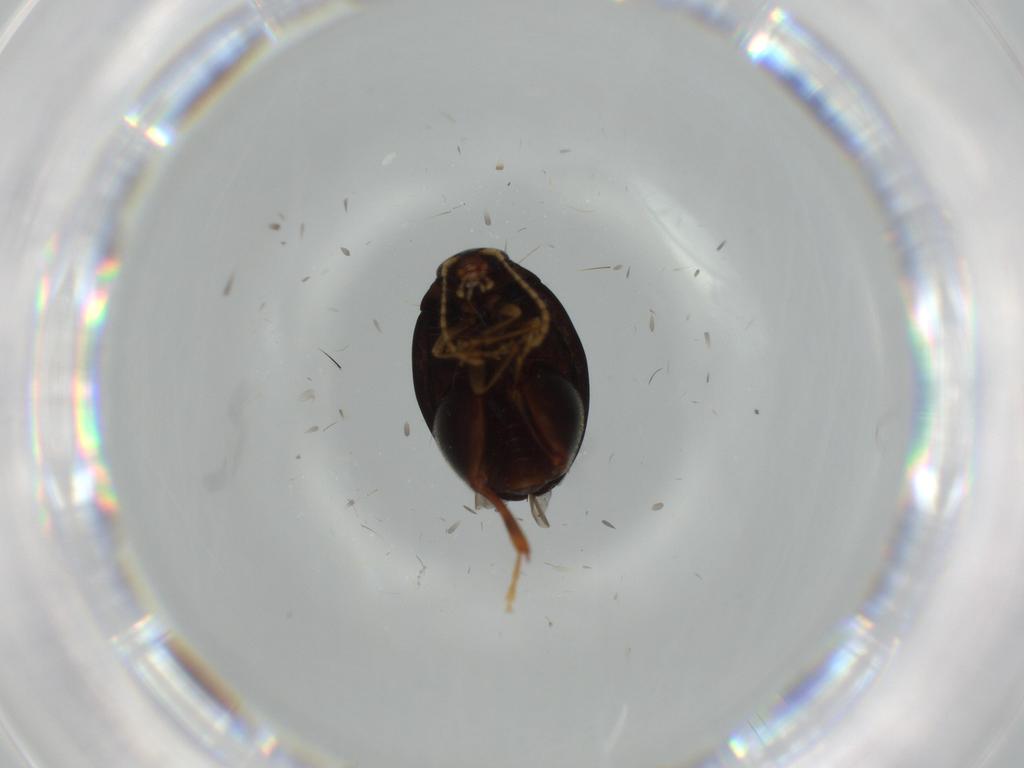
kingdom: Animalia
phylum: Arthropoda
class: Insecta
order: Coleoptera
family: Chrysomelidae
